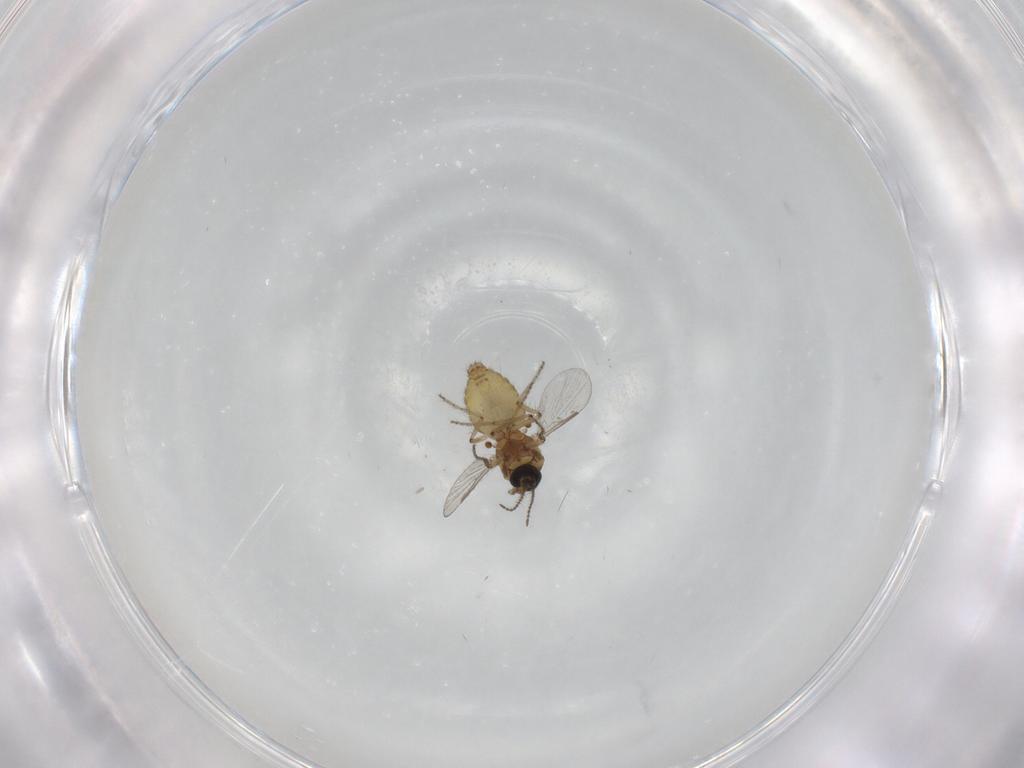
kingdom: Animalia
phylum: Arthropoda
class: Insecta
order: Diptera
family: Ceratopogonidae
